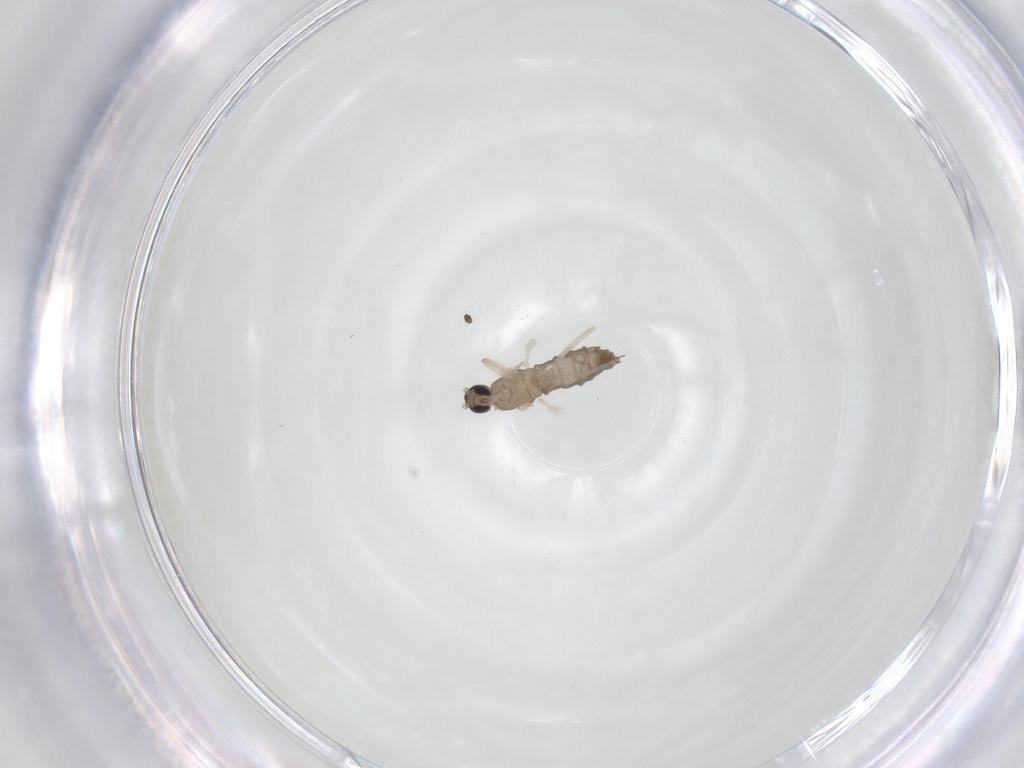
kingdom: Animalia
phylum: Arthropoda
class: Insecta
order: Diptera
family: Cecidomyiidae
